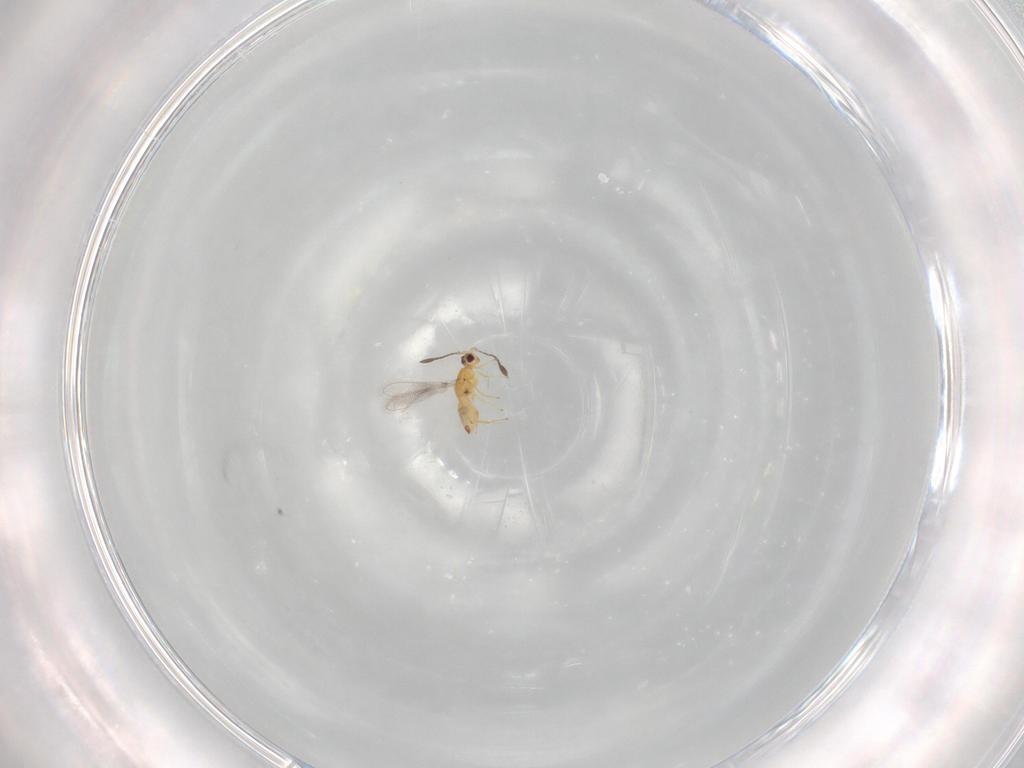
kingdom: Animalia
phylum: Arthropoda
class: Insecta
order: Hymenoptera
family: Mymaridae
